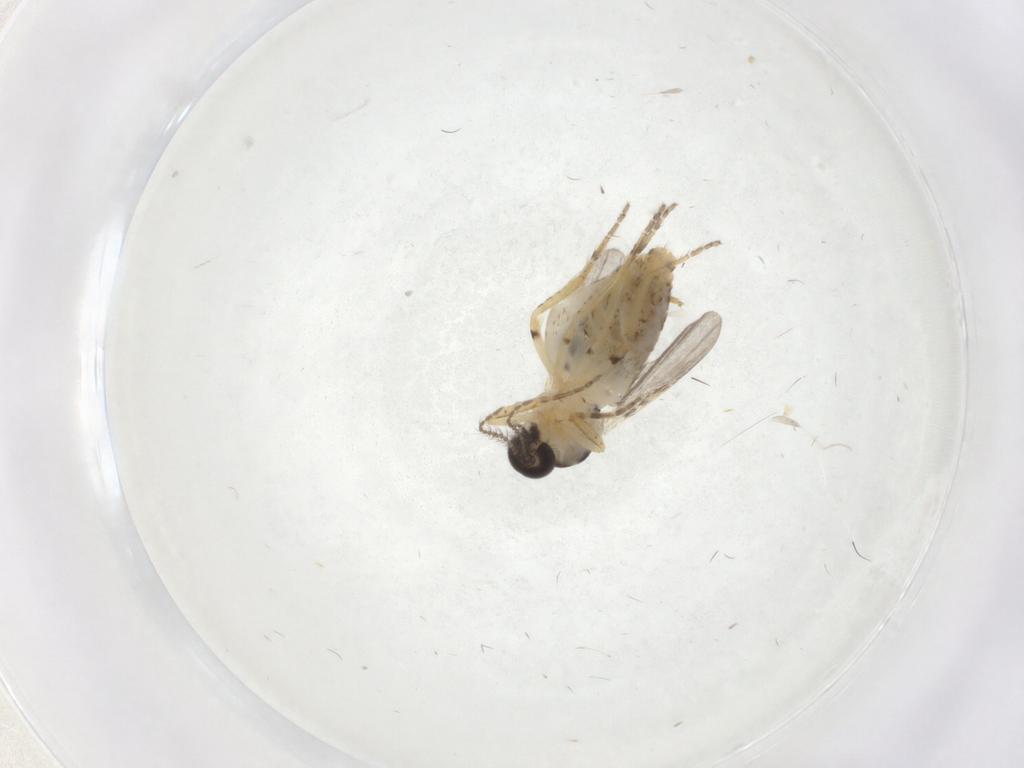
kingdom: Animalia
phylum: Arthropoda
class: Insecta
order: Diptera
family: Ceratopogonidae
